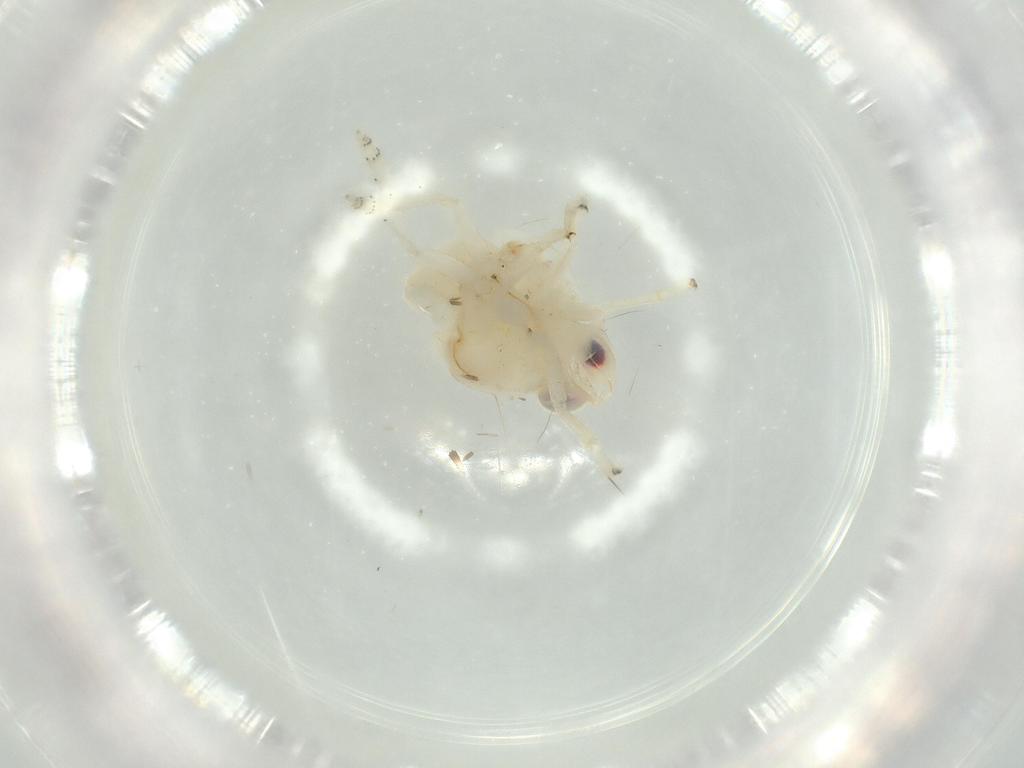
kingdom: Animalia
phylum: Arthropoda
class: Insecta
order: Hemiptera
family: Nogodinidae
